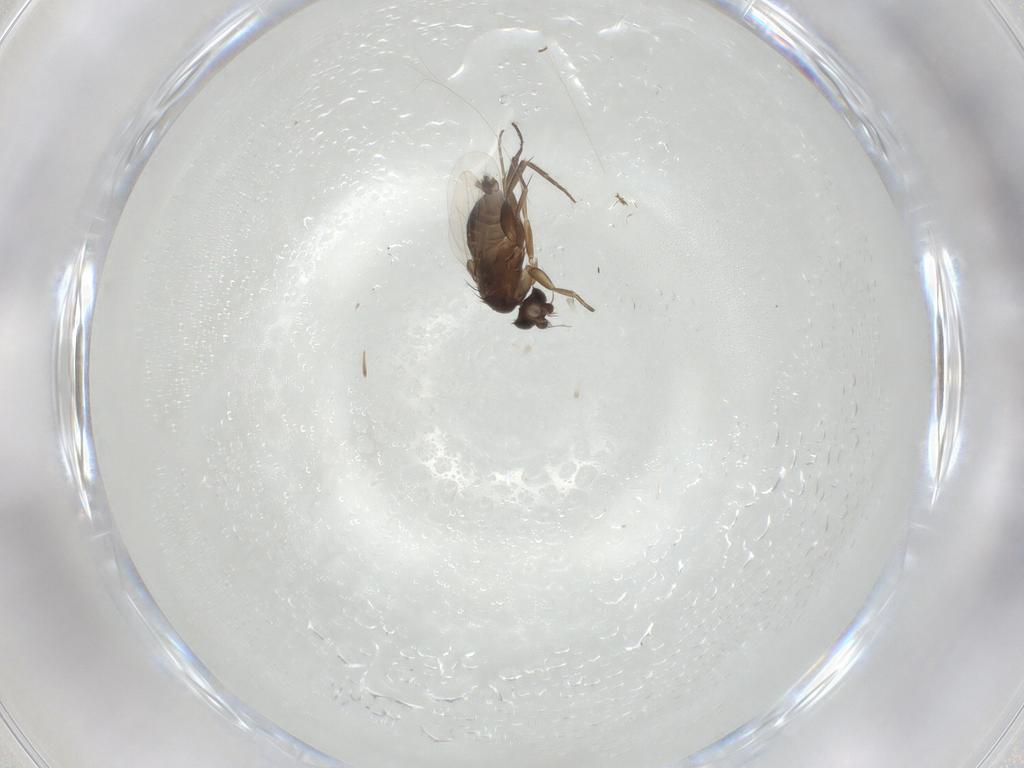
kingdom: Animalia
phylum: Arthropoda
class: Insecta
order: Diptera
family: Phoridae
